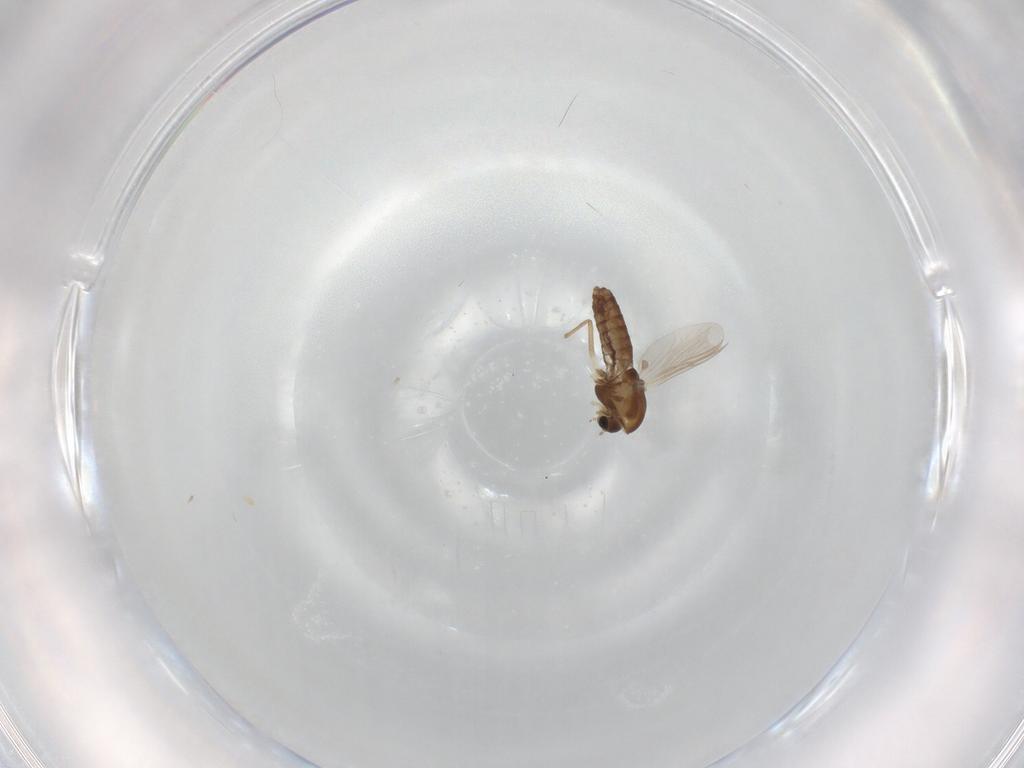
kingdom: Animalia
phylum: Arthropoda
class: Insecta
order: Diptera
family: Chironomidae
